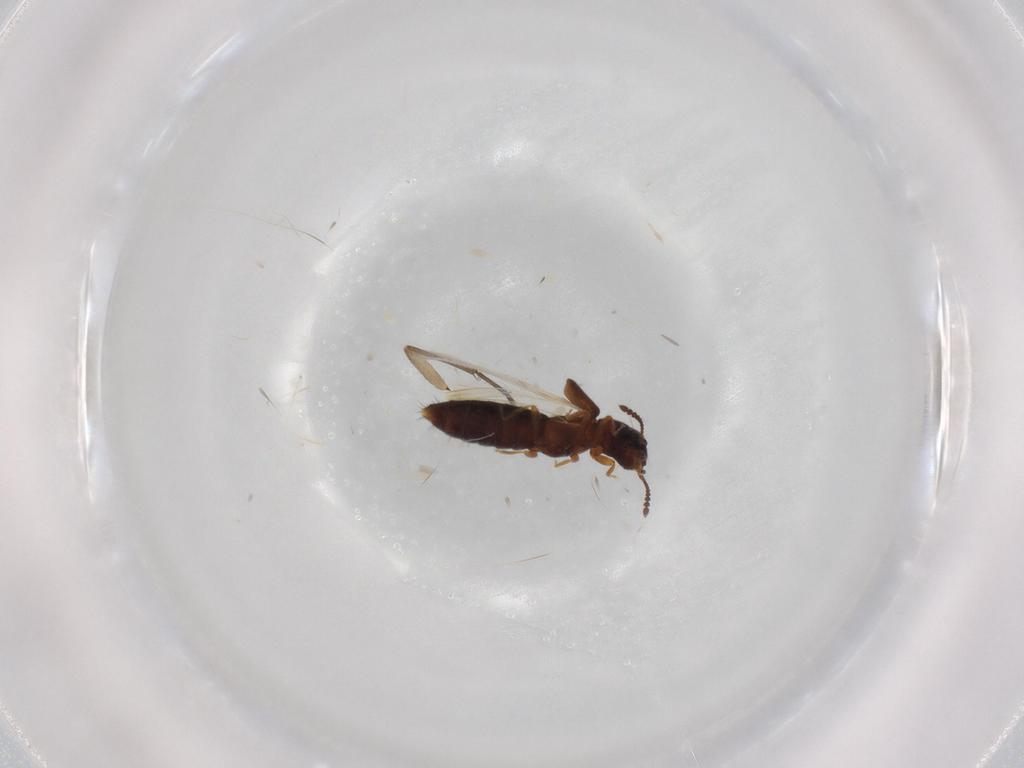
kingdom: Animalia
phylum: Arthropoda
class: Insecta
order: Coleoptera
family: Staphylinidae
